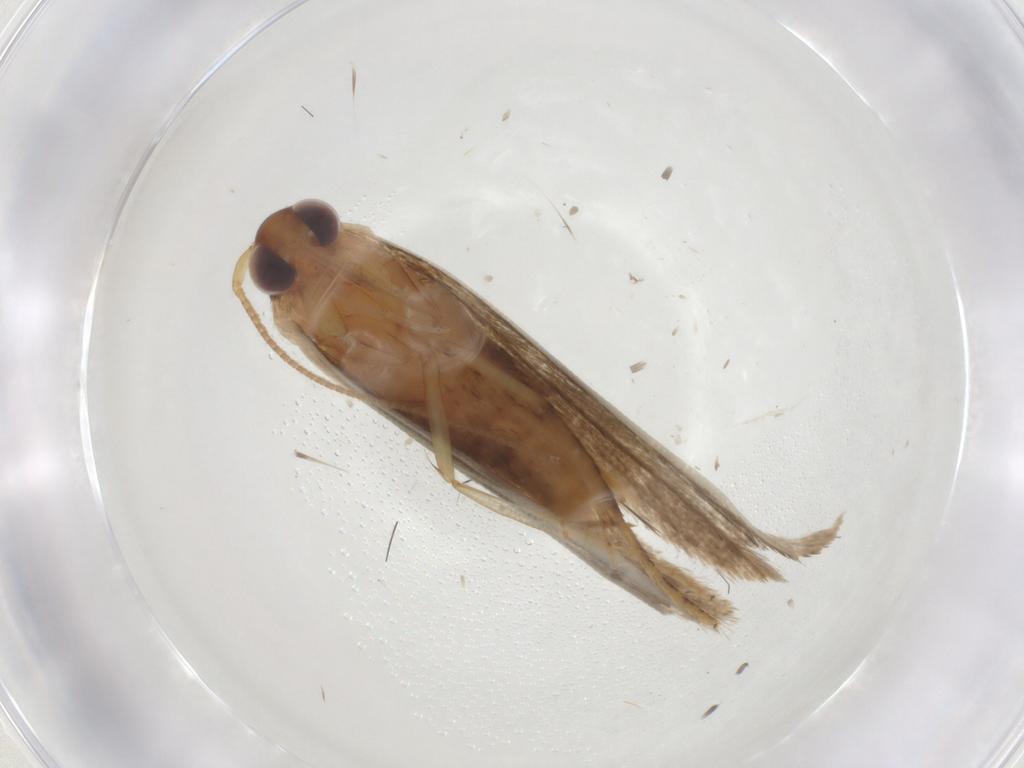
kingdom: Animalia
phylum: Arthropoda
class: Insecta
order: Lepidoptera
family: Blastobasidae
